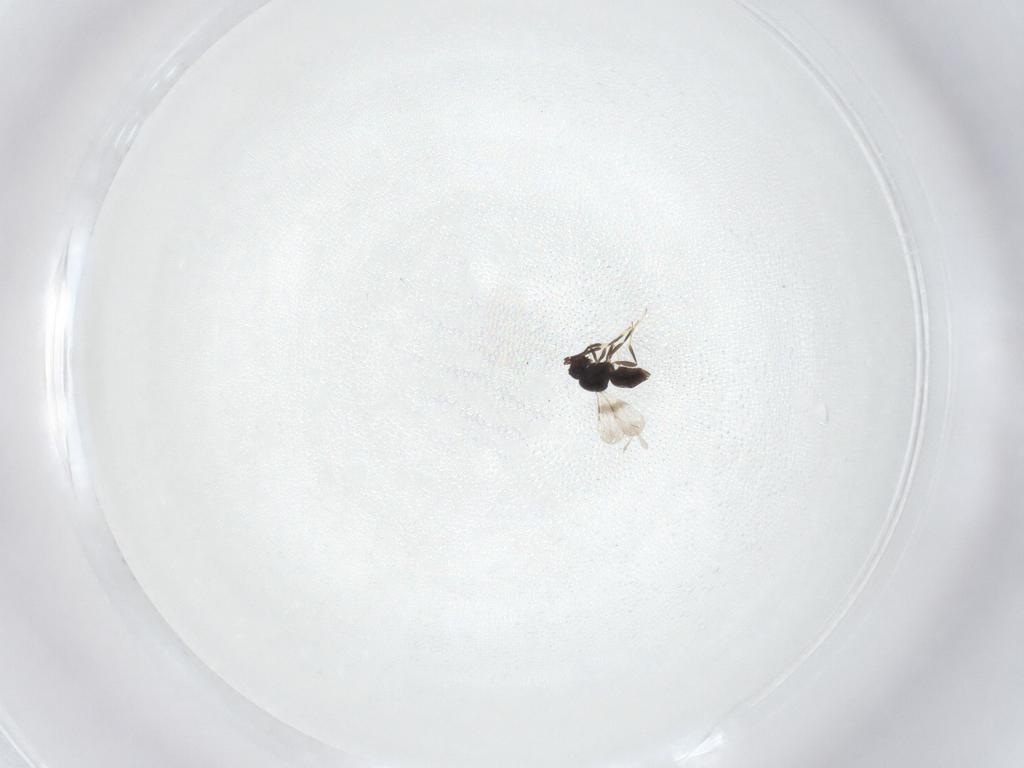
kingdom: Animalia
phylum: Arthropoda
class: Insecta
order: Hymenoptera
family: Ceraphronidae
